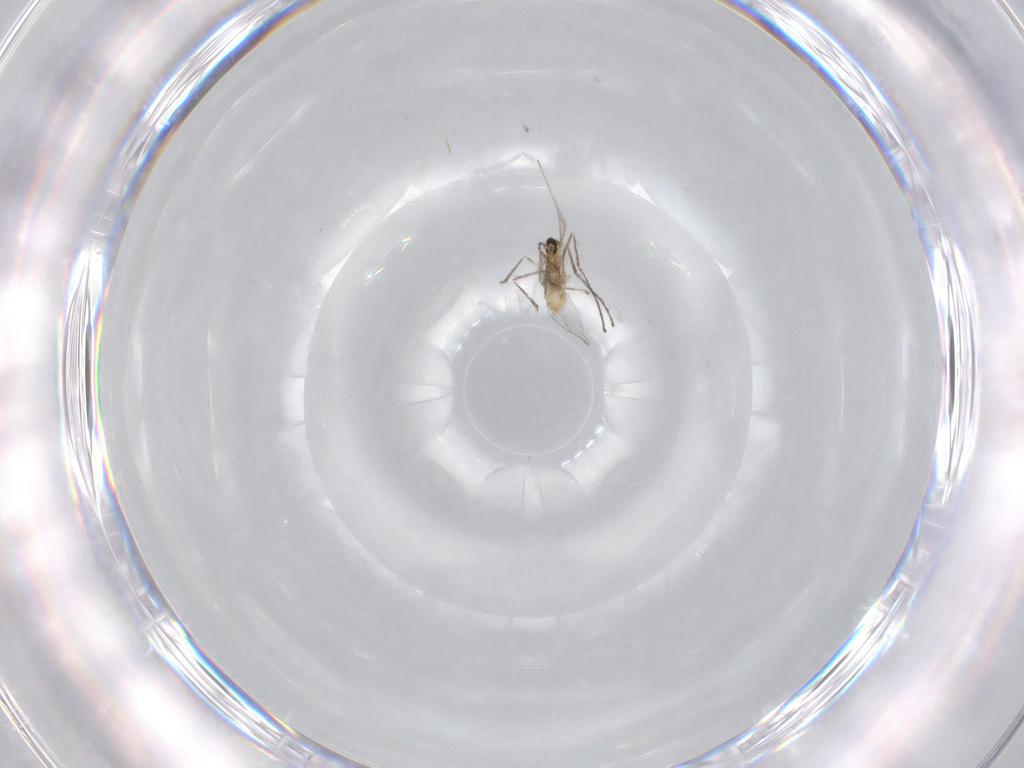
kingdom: Animalia
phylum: Arthropoda
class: Insecta
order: Diptera
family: Cecidomyiidae
